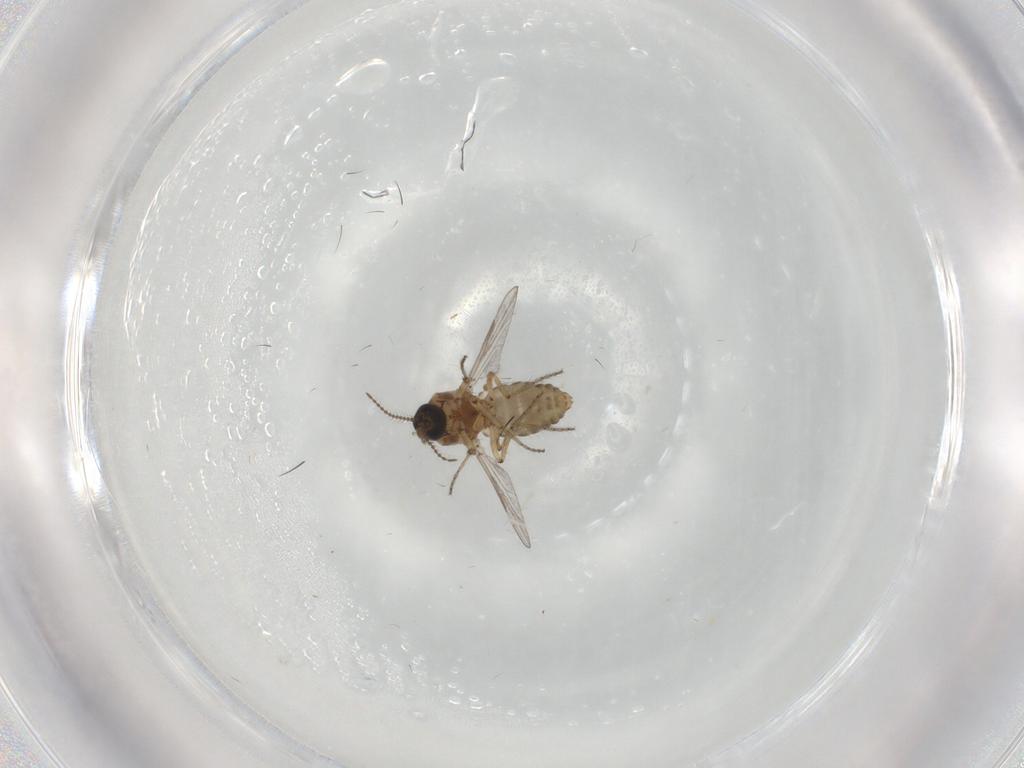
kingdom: Animalia
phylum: Arthropoda
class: Insecta
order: Diptera
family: Ceratopogonidae
